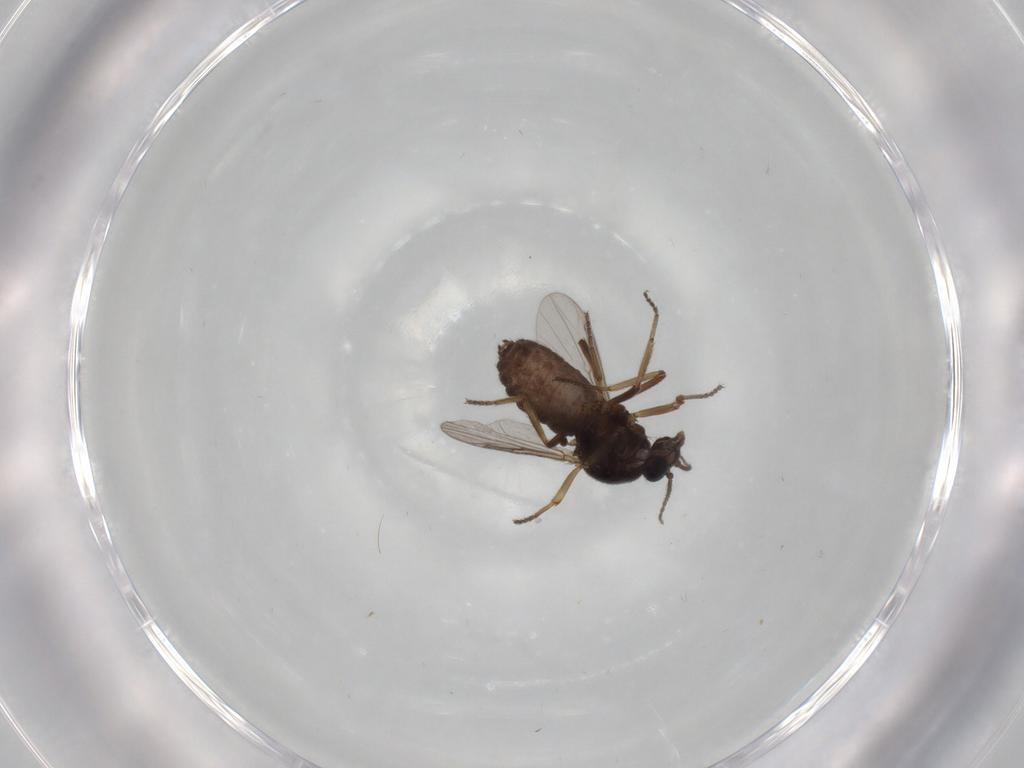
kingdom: Animalia
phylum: Arthropoda
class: Insecta
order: Diptera
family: Ceratopogonidae
